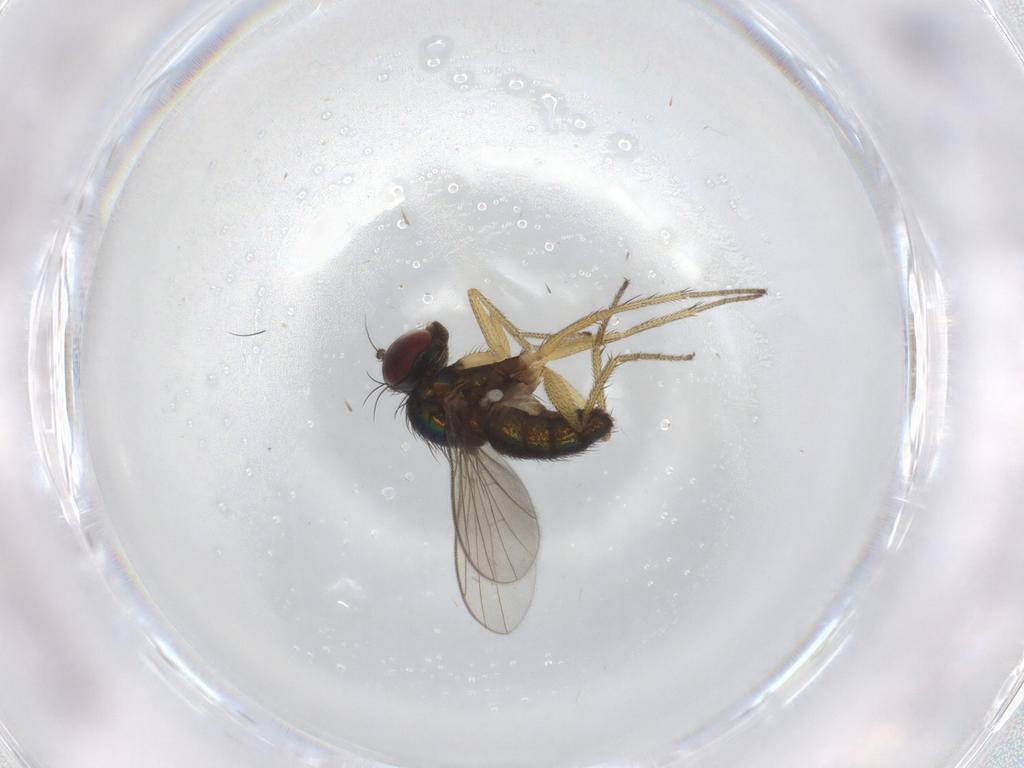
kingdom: Animalia
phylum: Arthropoda
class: Insecta
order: Diptera
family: Dolichopodidae
